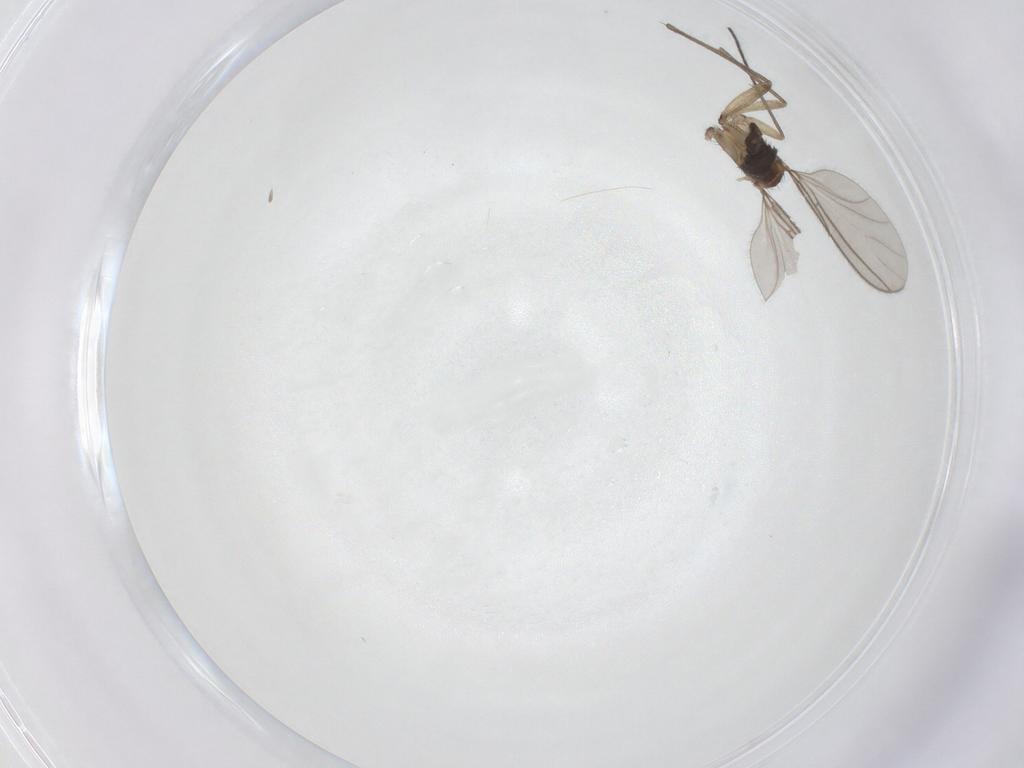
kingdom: Animalia
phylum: Arthropoda
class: Insecta
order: Diptera
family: Sciaridae
